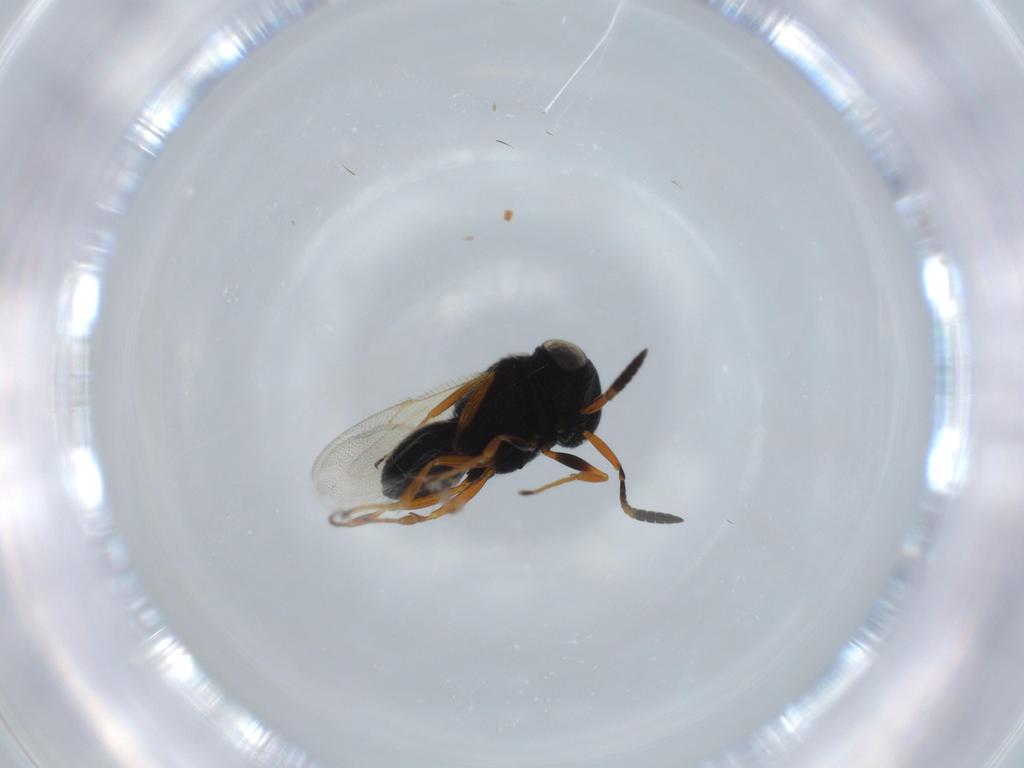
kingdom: Animalia
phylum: Arthropoda
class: Insecta
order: Hymenoptera
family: Scelionidae
